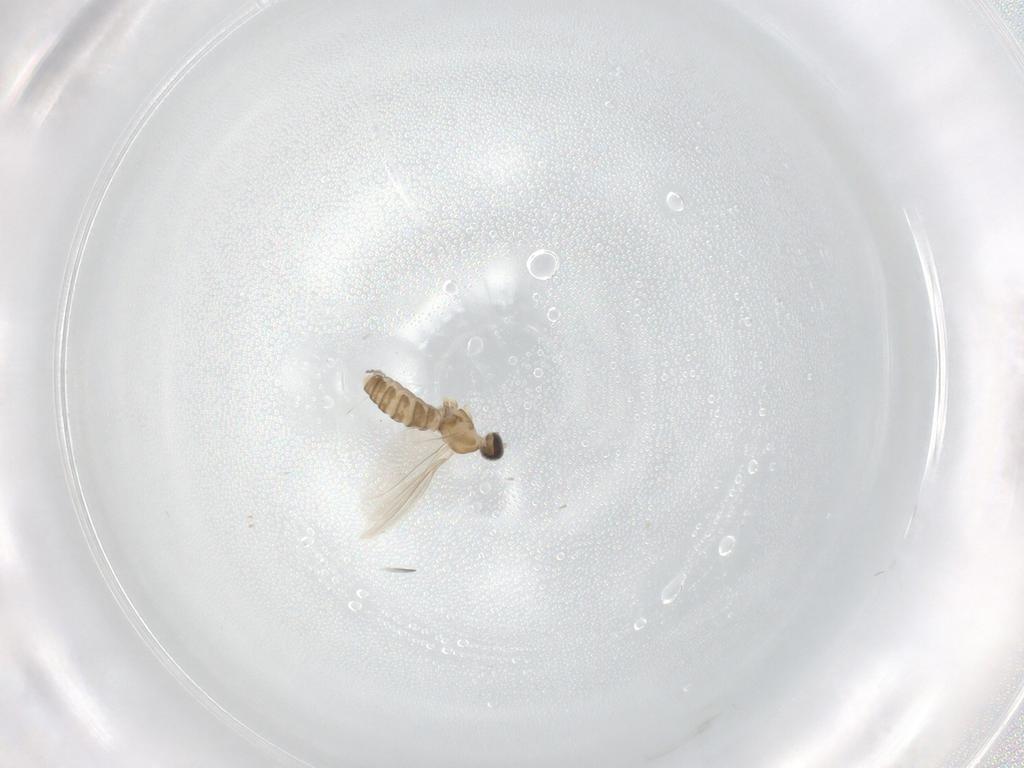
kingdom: Animalia
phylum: Arthropoda
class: Insecta
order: Diptera
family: Cecidomyiidae
